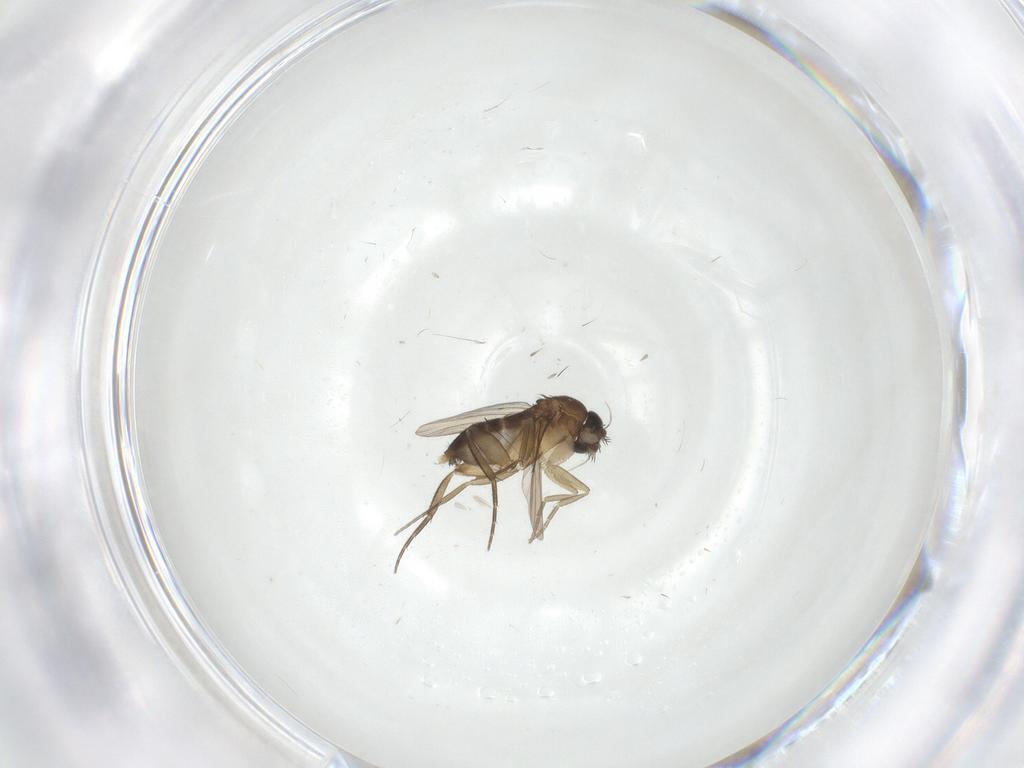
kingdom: Animalia
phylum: Arthropoda
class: Insecta
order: Diptera
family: Phoridae
